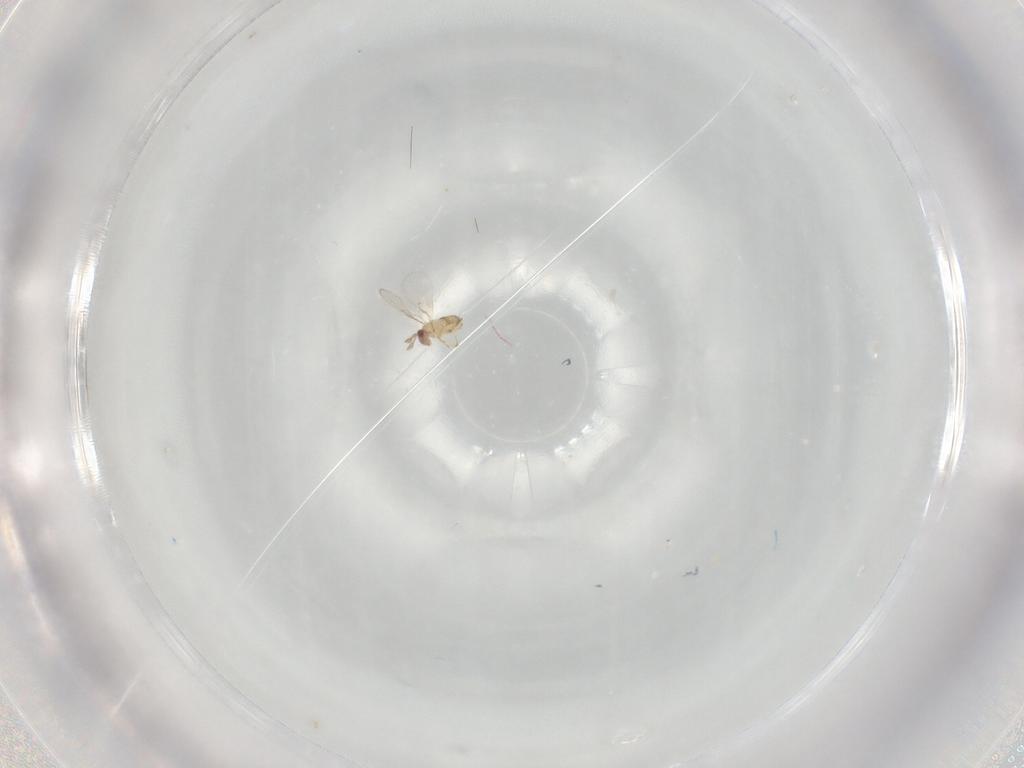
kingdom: Animalia
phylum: Arthropoda
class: Insecta
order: Hymenoptera
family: Trichogrammatidae
